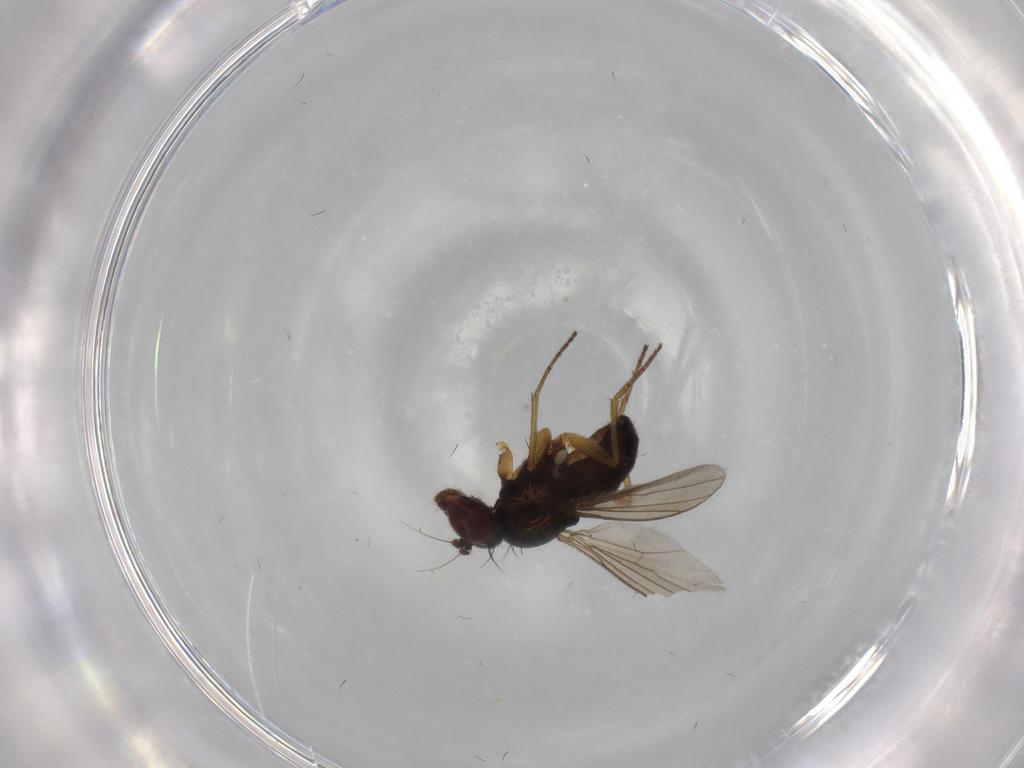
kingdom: Animalia
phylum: Arthropoda
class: Insecta
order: Diptera
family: Dolichopodidae
